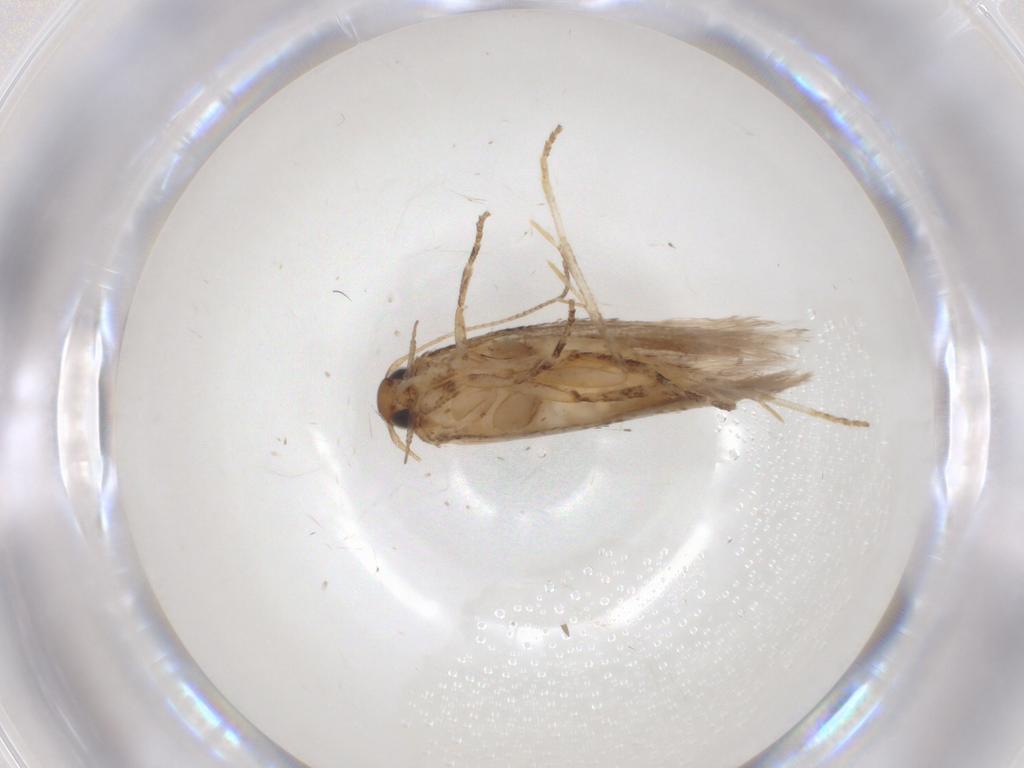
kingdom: Animalia
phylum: Arthropoda
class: Insecta
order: Lepidoptera
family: Gelechiidae
